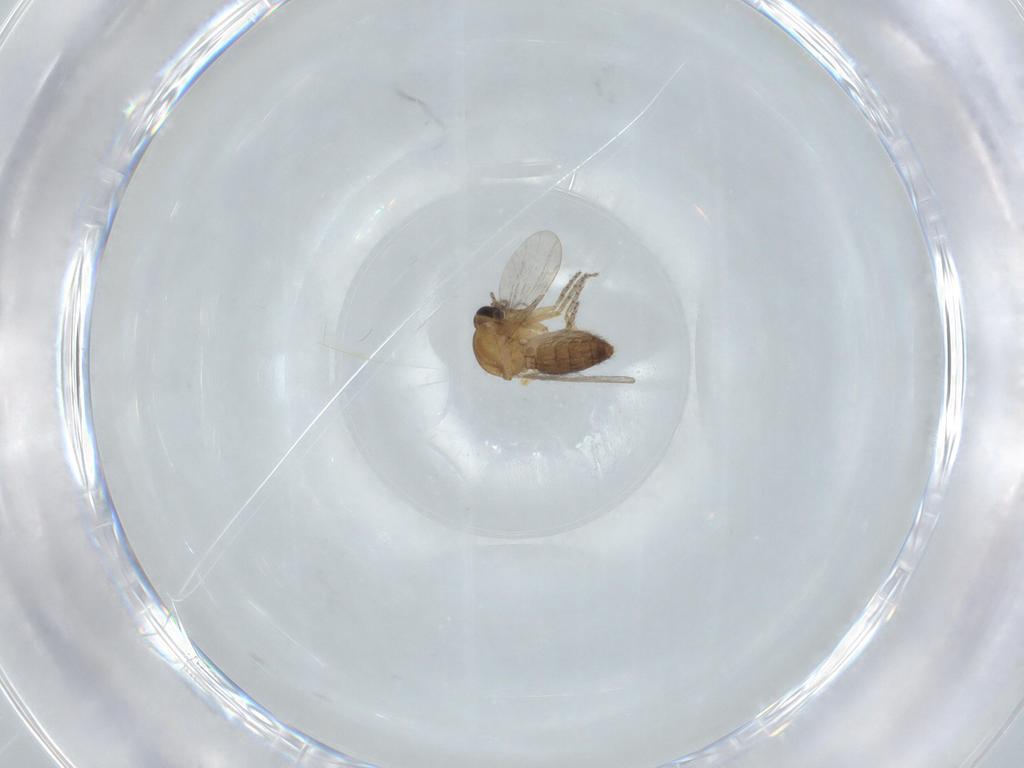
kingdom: Animalia
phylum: Arthropoda
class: Insecta
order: Diptera
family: Ceratopogonidae
